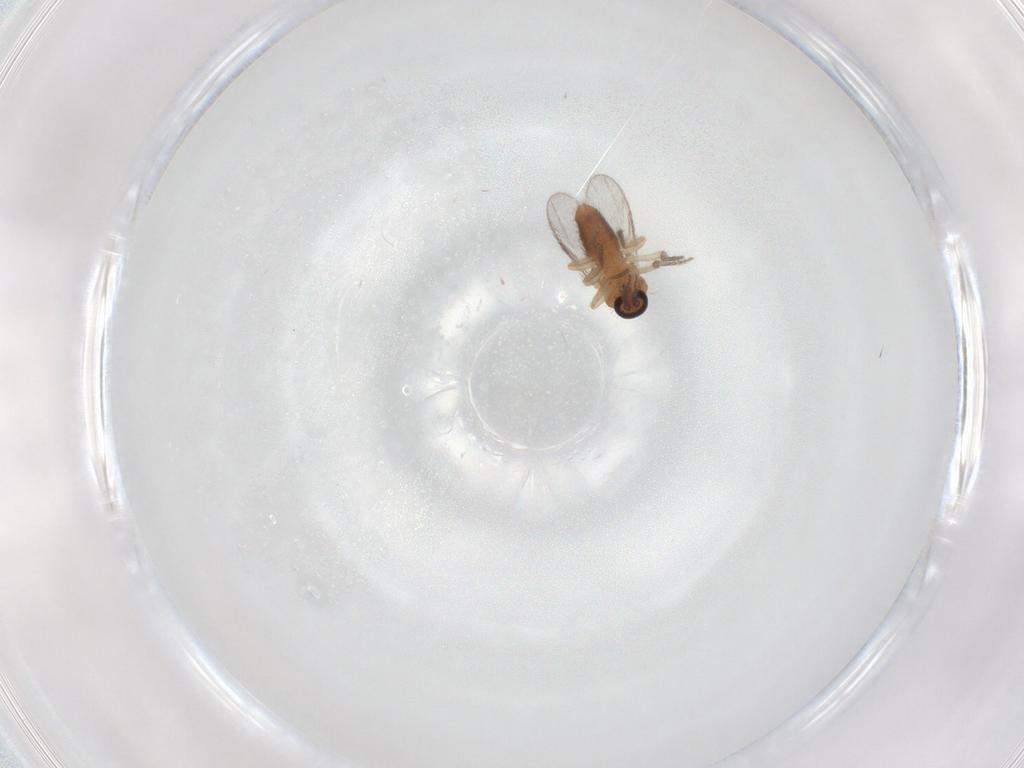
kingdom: Animalia
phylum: Arthropoda
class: Insecta
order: Diptera
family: Ceratopogonidae
